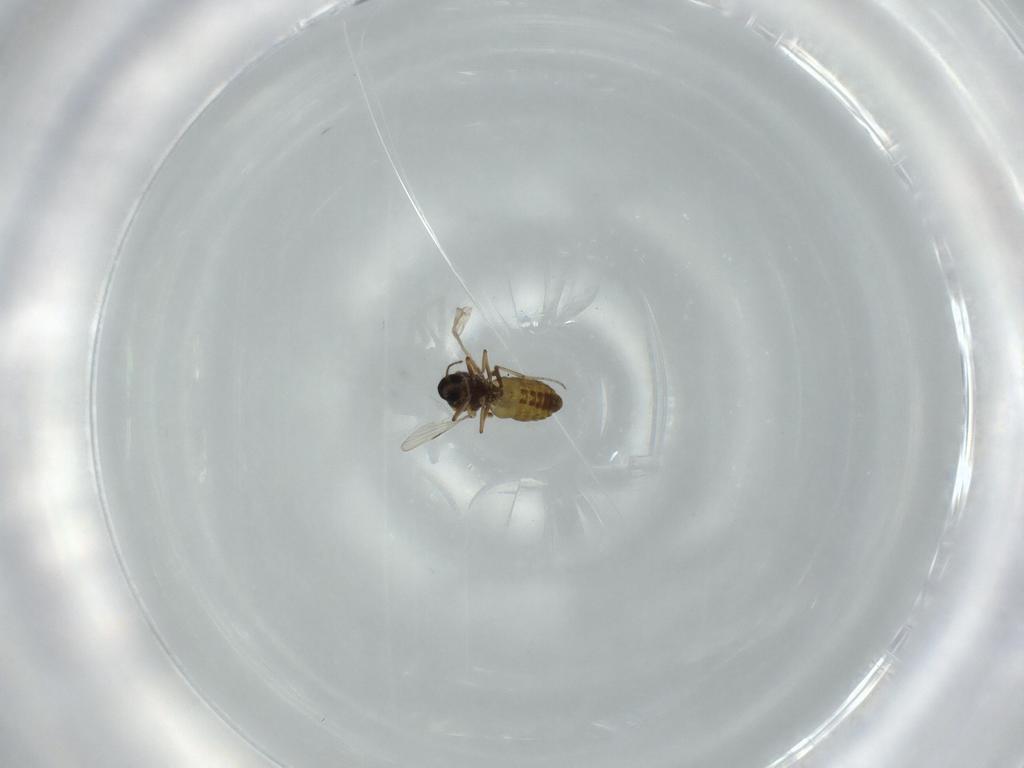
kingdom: Animalia
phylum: Arthropoda
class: Insecta
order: Diptera
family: Ceratopogonidae
